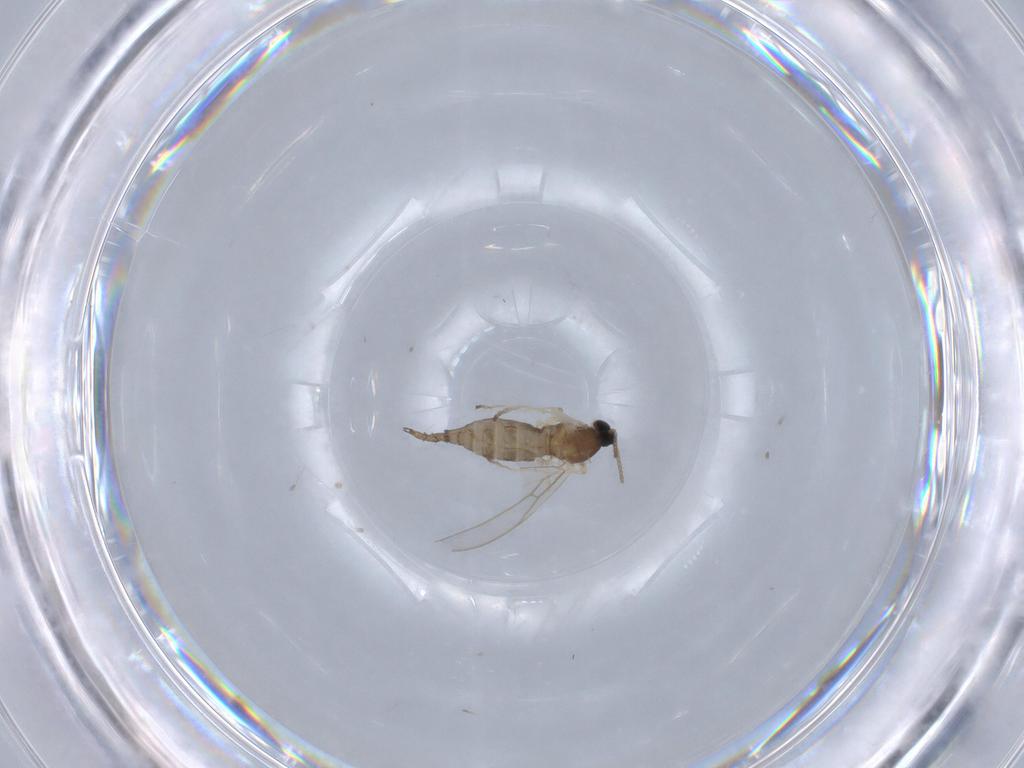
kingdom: Animalia
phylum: Arthropoda
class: Insecta
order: Diptera
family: Cecidomyiidae
